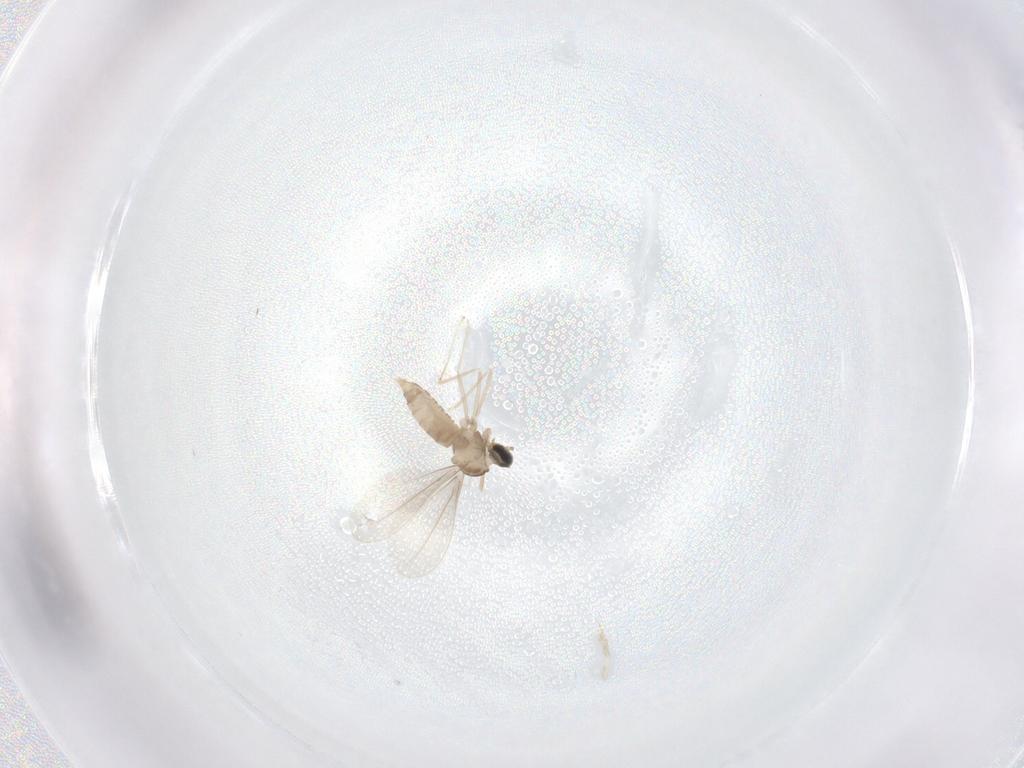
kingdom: Animalia
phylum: Arthropoda
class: Insecta
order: Diptera
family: Cecidomyiidae
